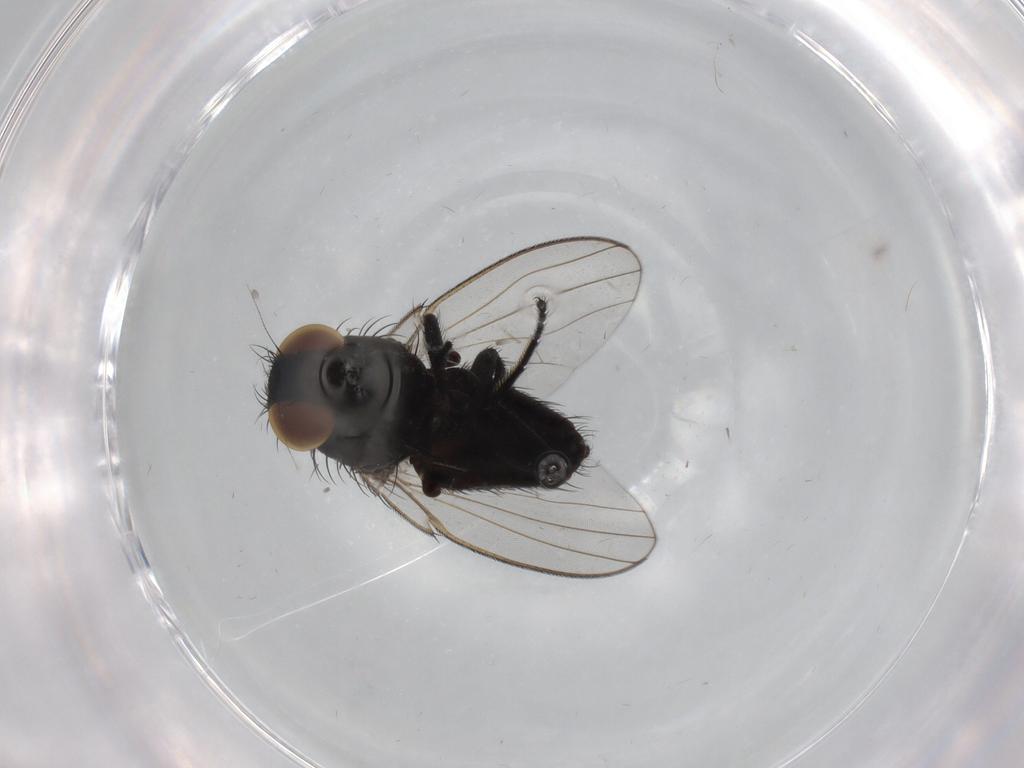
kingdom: Animalia
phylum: Arthropoda
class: Insecta
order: Diptera
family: Milichiidae
